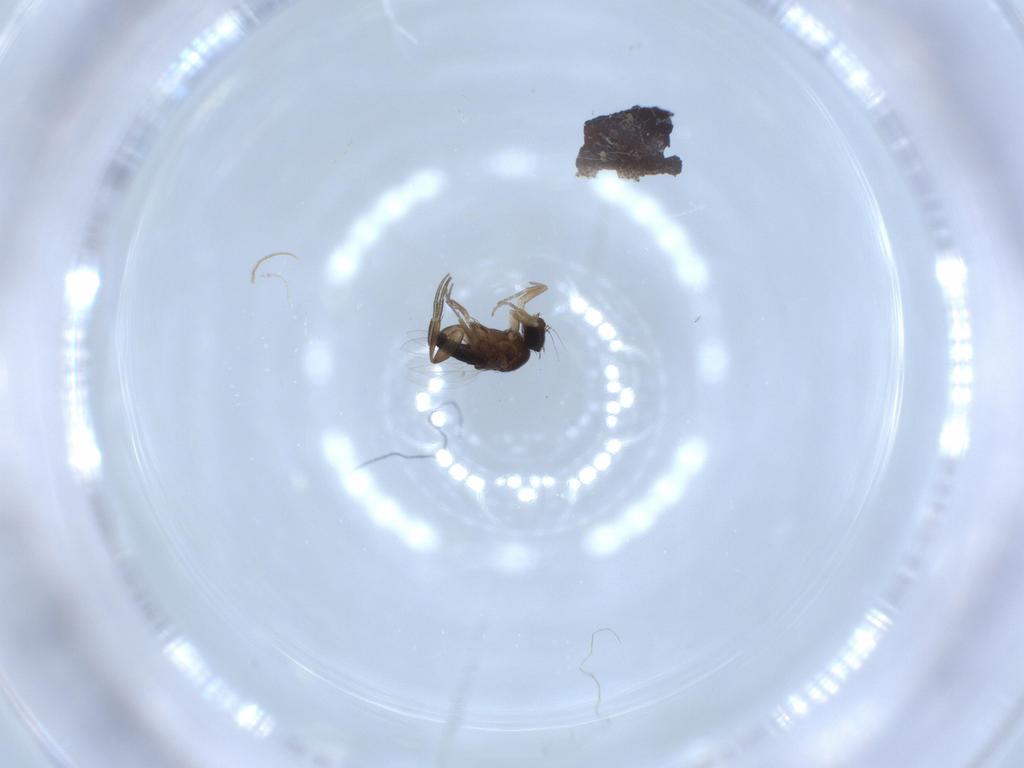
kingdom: Animalia
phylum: Arthropoda
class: Insecta
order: Diptera
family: Phoridae
